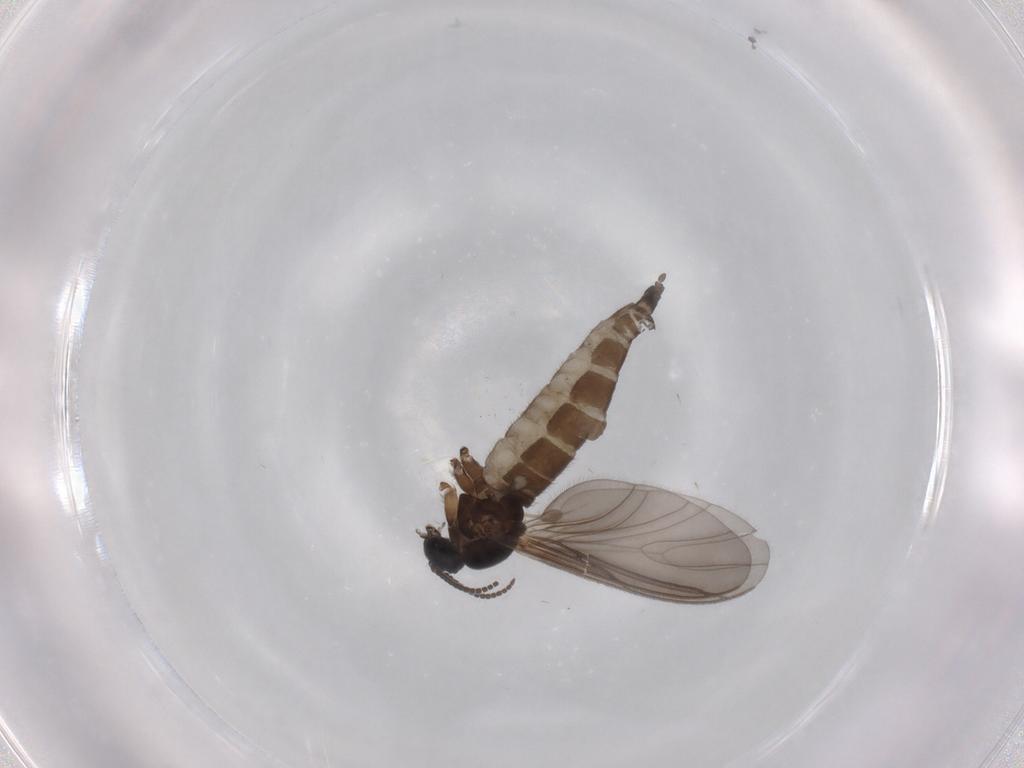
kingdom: Animalia
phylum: Arthropoda
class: Insecta
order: Diptera
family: Sciaridae
